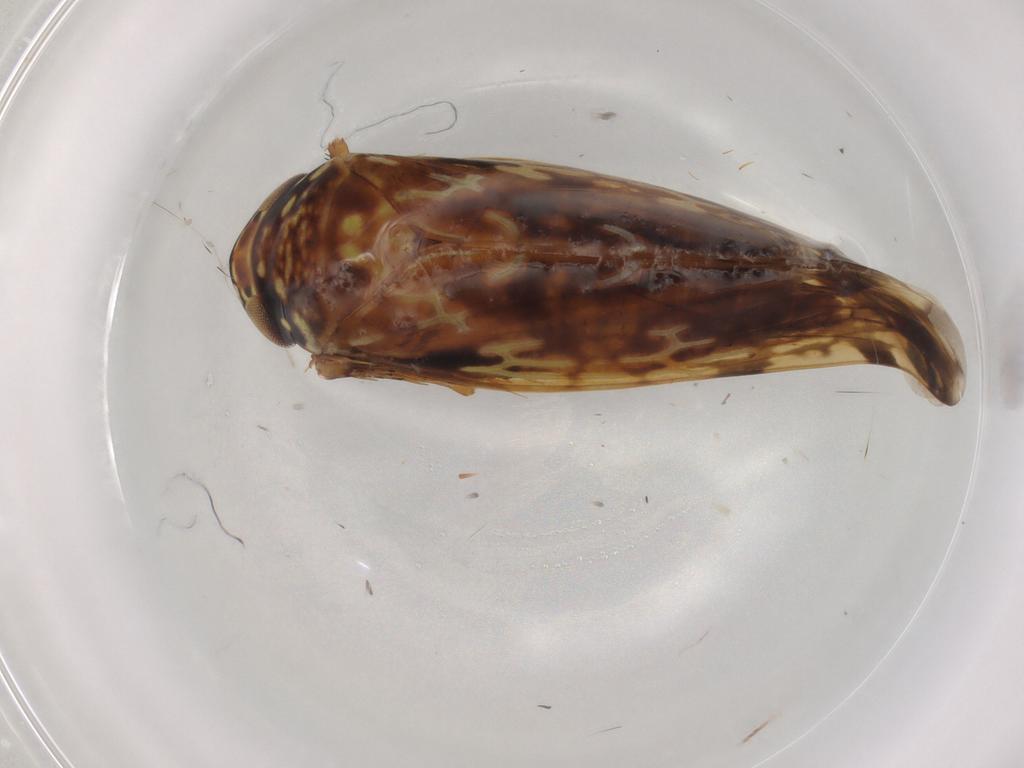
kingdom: Animalia
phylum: Arthropoda
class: Insecta
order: Hemiptera
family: Cicadellidae
